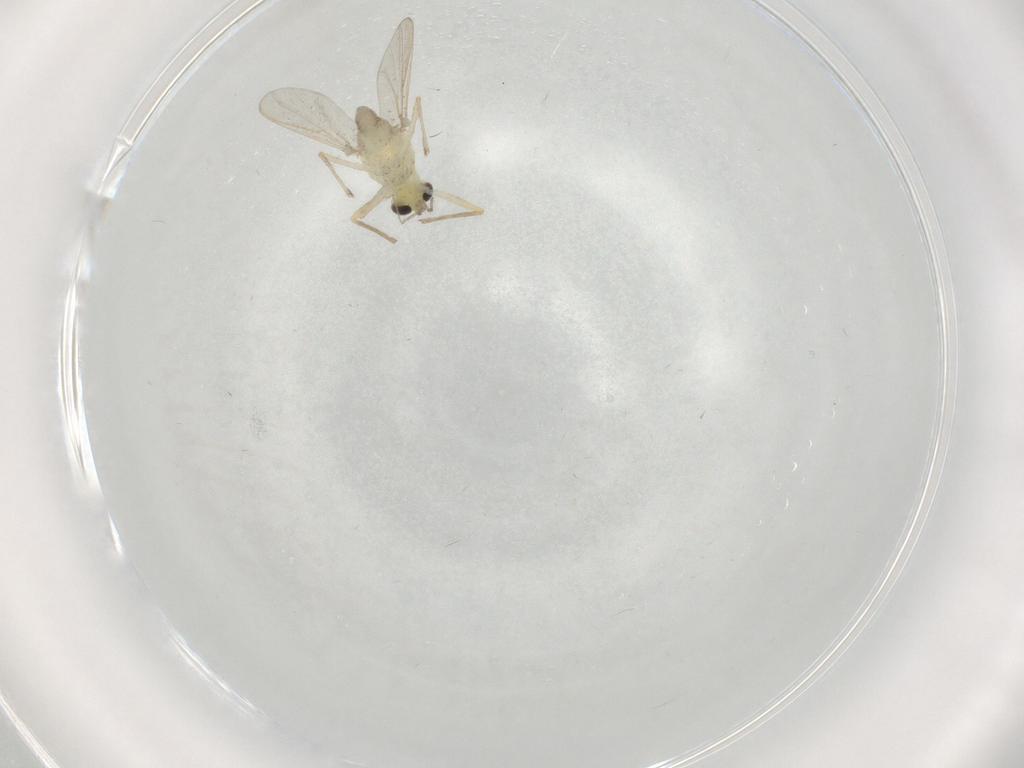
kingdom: Animalia
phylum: Arthropoda
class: Insecta
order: Diptera
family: Chironomidae
